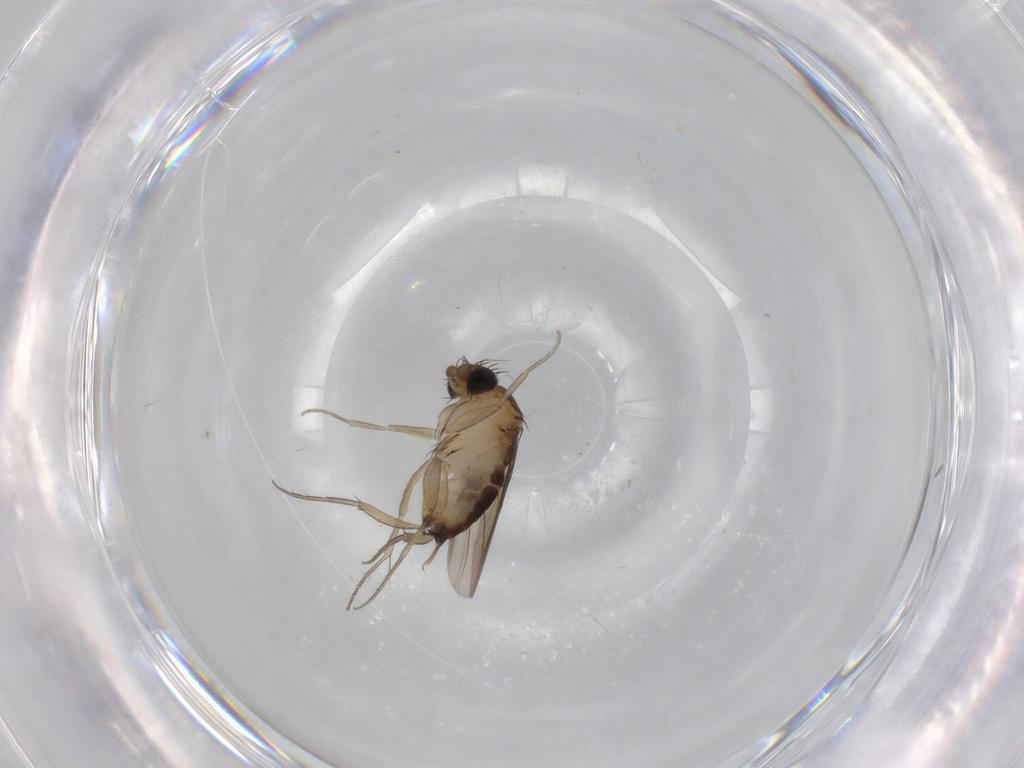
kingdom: Animalia
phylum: Arthropoda
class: Insecta
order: Diptera
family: Phoridae
